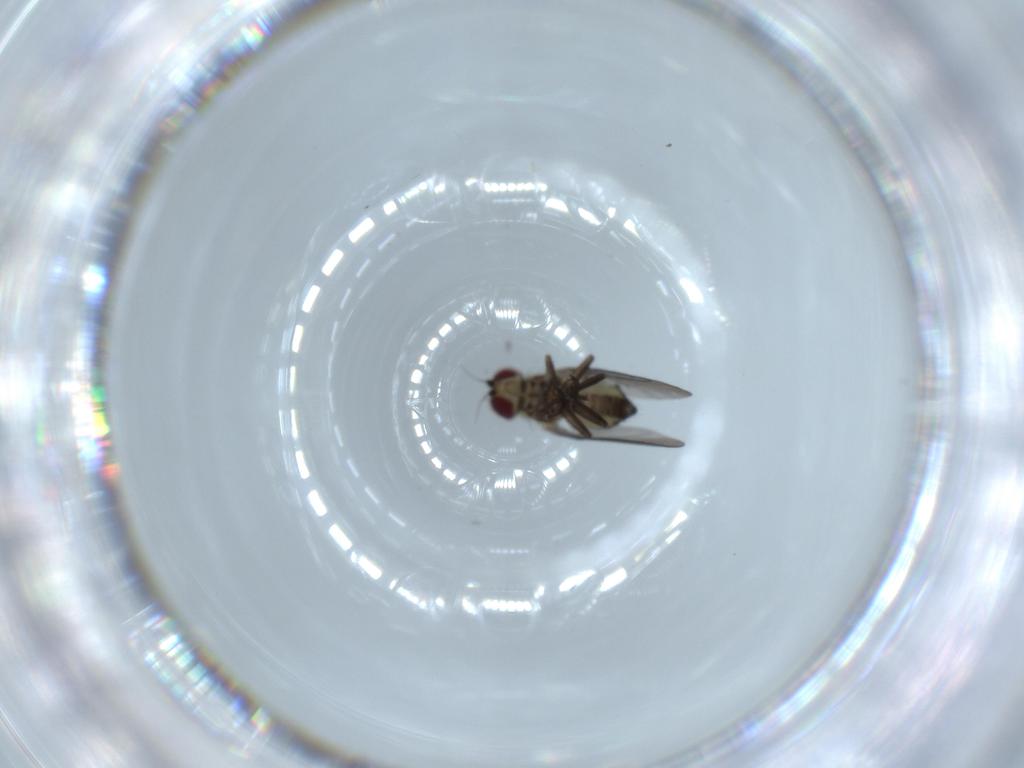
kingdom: Animalia
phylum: Arthropoda
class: Insecta
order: Diptera
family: Agromyzidae
